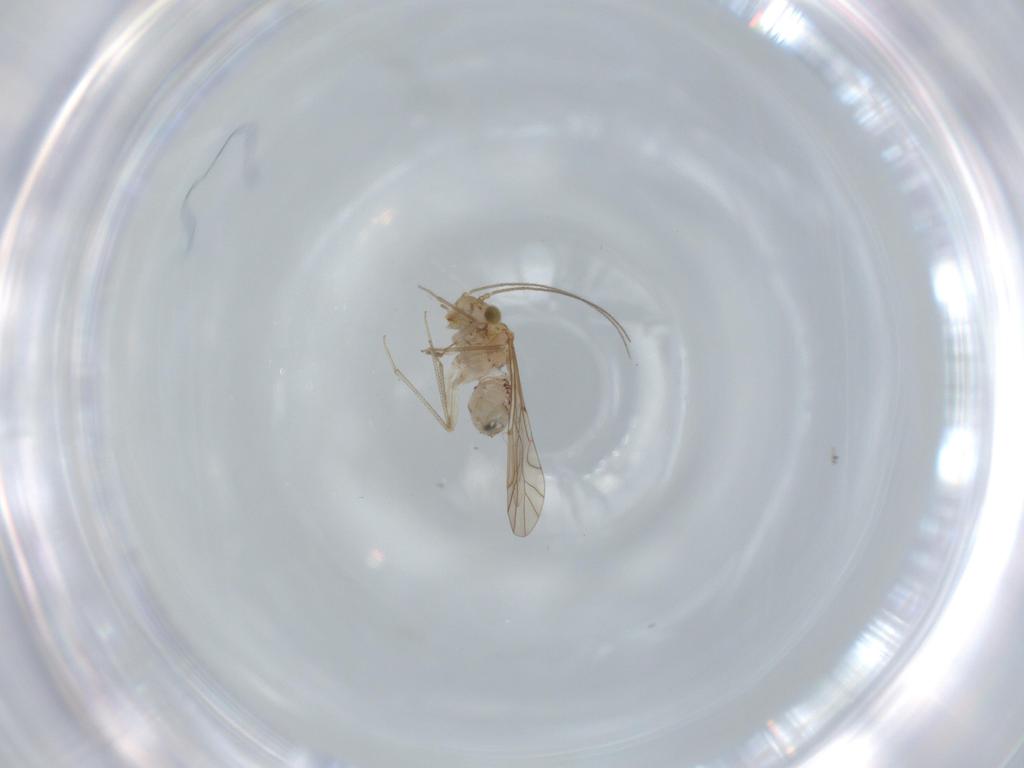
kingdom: Animalia
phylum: Arthropoda
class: Insecta
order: Psocodea
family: Lachesillidae
